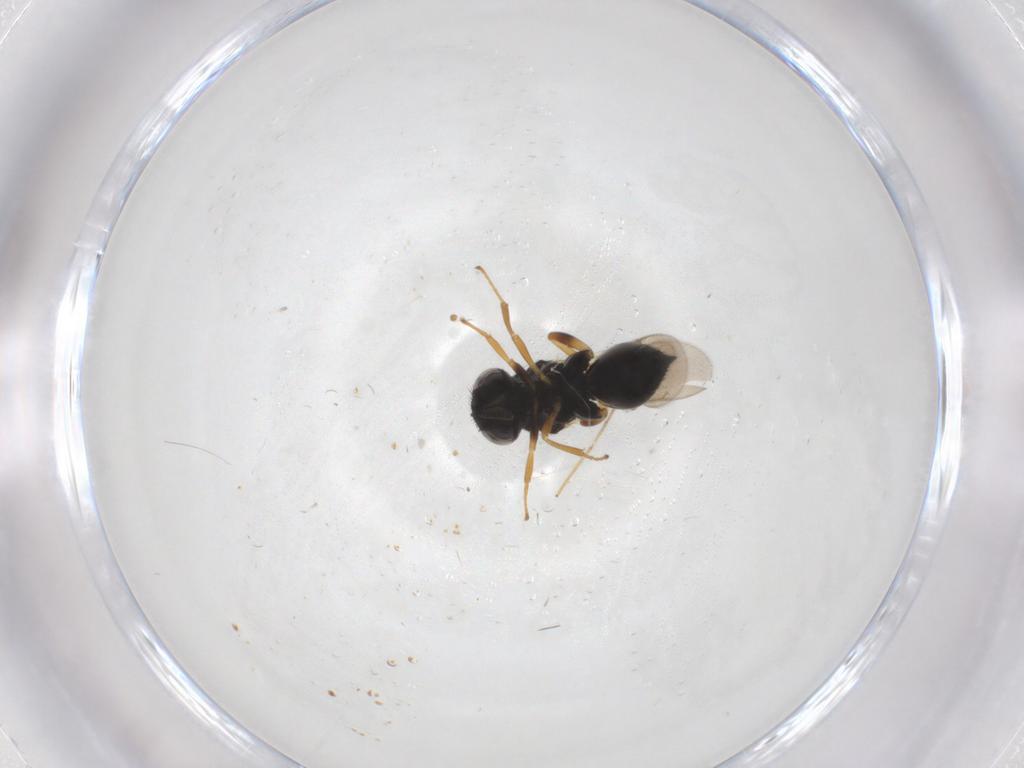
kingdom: Animalia
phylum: Arthropoda
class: Insecta
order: Hymenoptera
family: Pteromalidae
